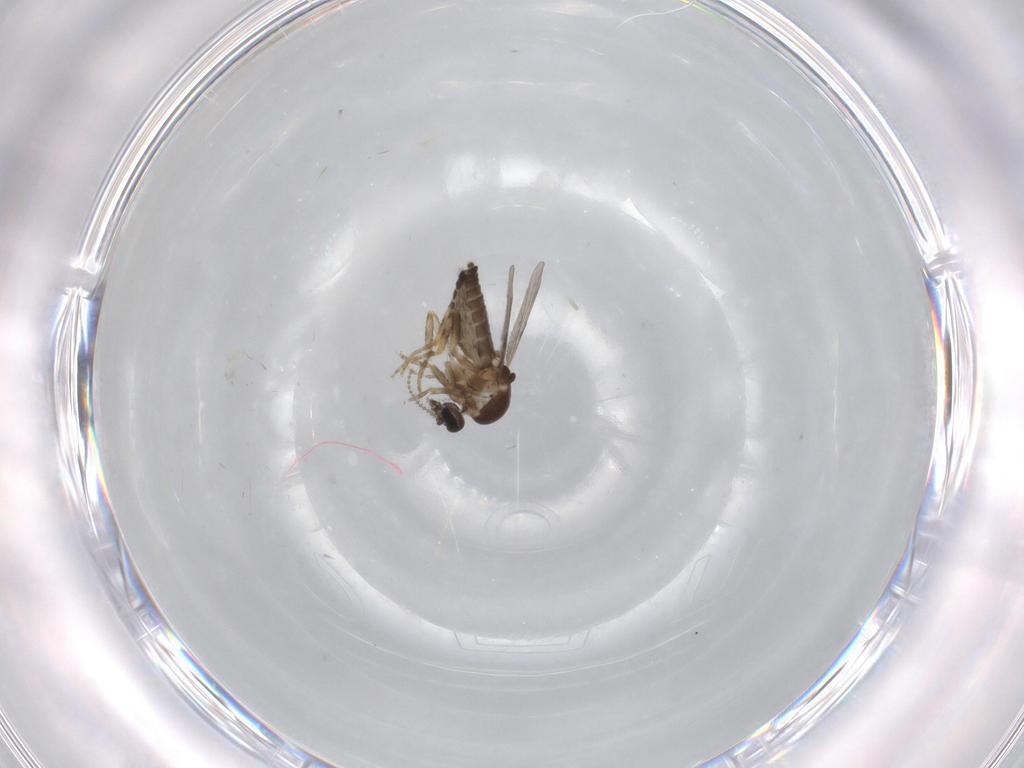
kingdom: Animalia
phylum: Arthropoda
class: Insecta
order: Diptera
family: Ceratopogonidae
